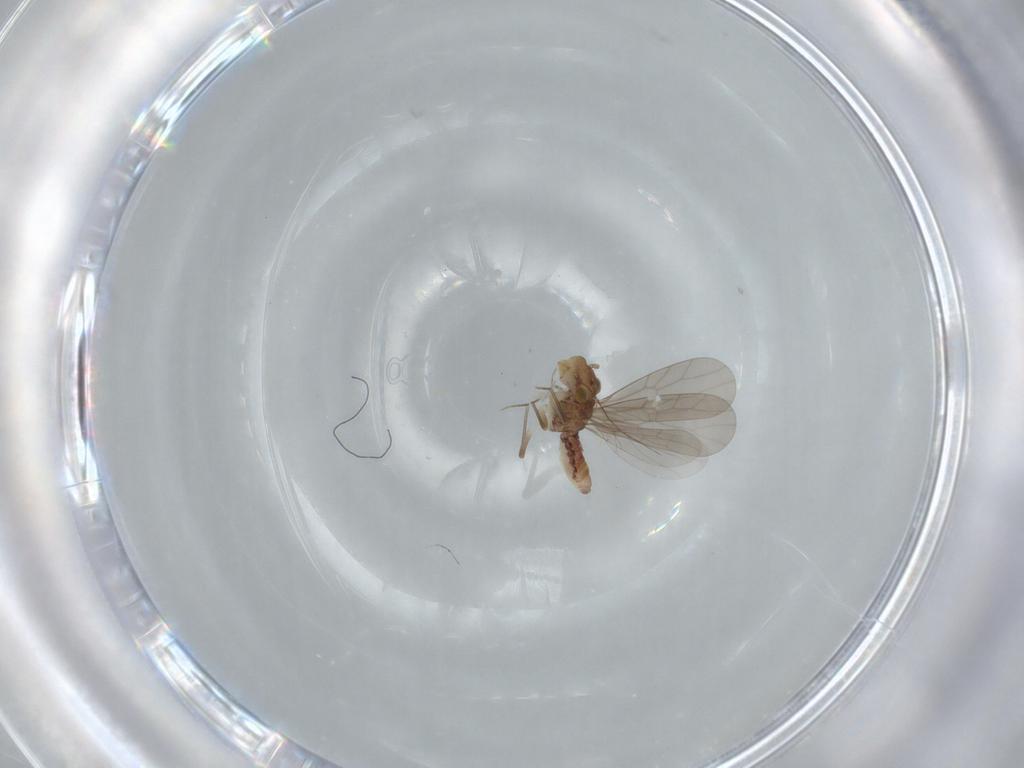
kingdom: Animalia
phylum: Arthropoda
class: Insecta
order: Psocodea
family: Lepidopsocidae
